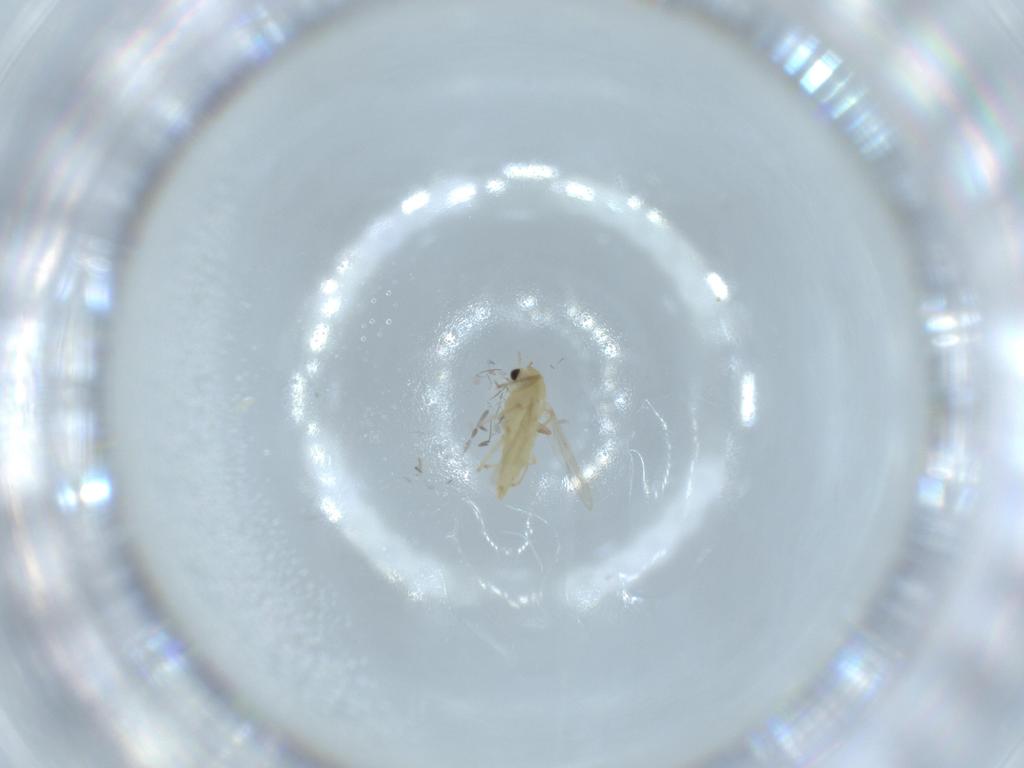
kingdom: Animalia
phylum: Arthropoda
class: Insecta
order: Diptera
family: Chironomidae
